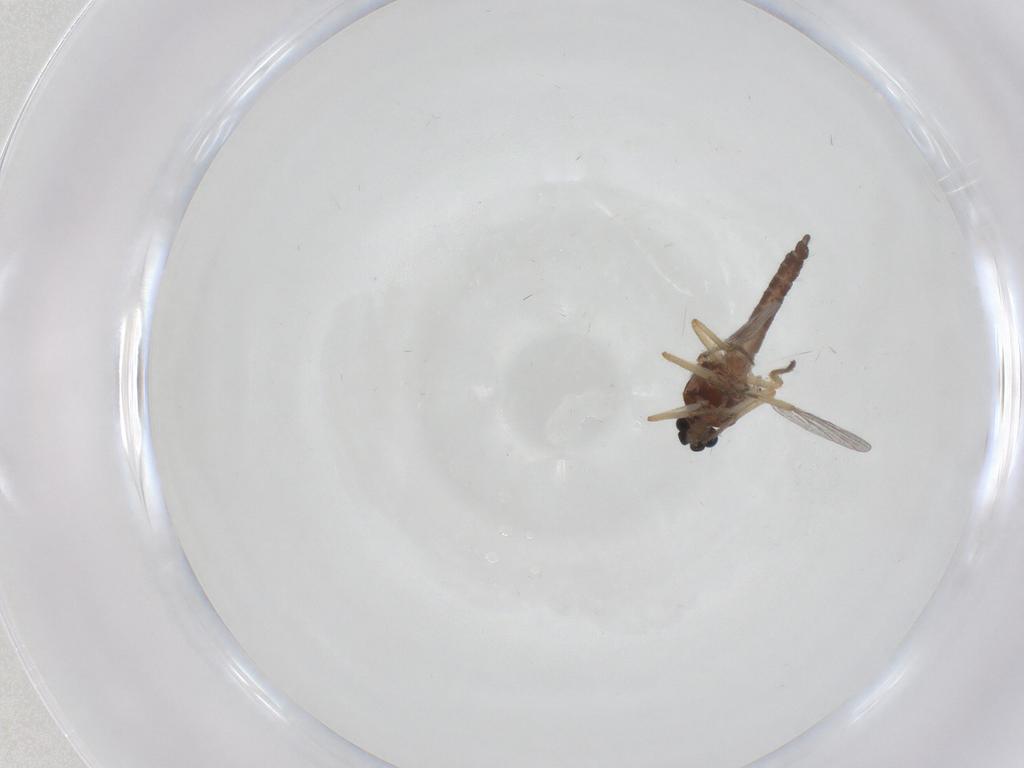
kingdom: Animalia
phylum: Arthropoda
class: Insecta
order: Diptera
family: Ceratopogonidae
